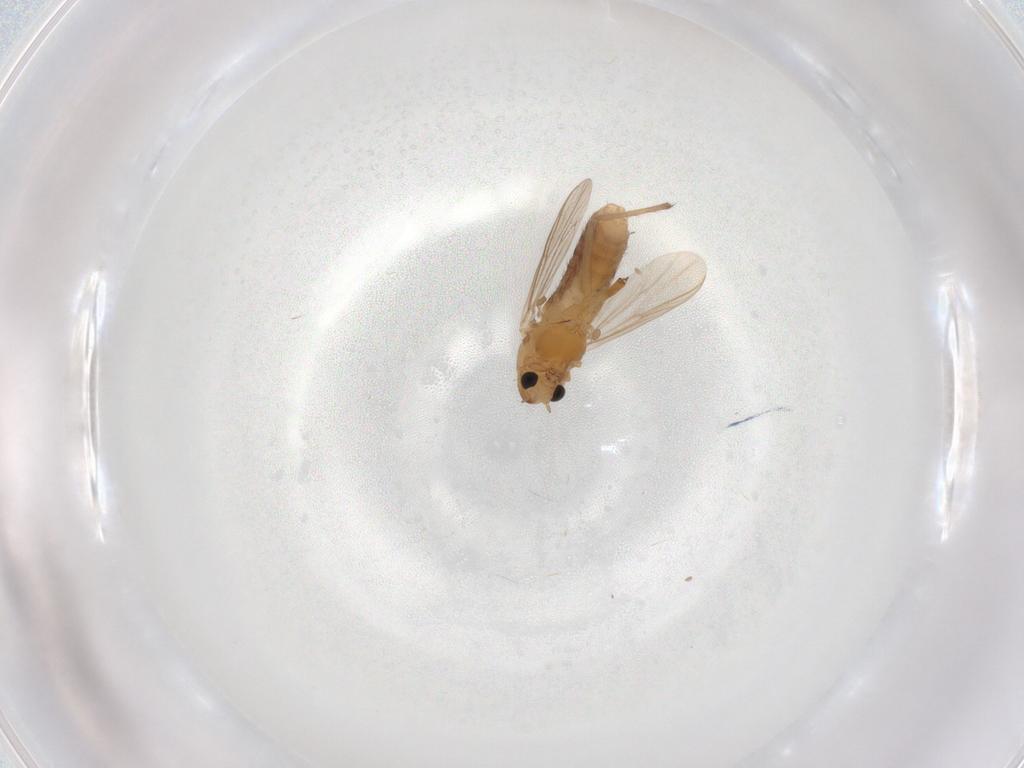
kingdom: Animalia
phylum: Arthropoda
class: Insecta
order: Diptera
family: Chironomidae
